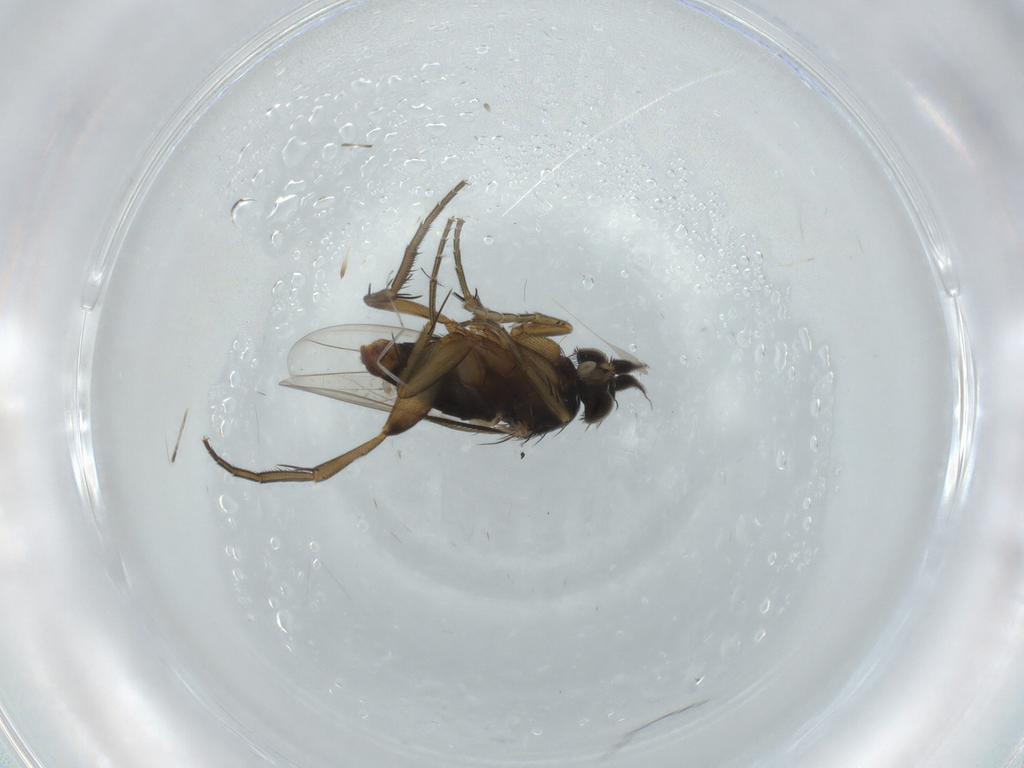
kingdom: Animalia
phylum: Arthropoda
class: Insecta
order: Diptera
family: Phoridae
